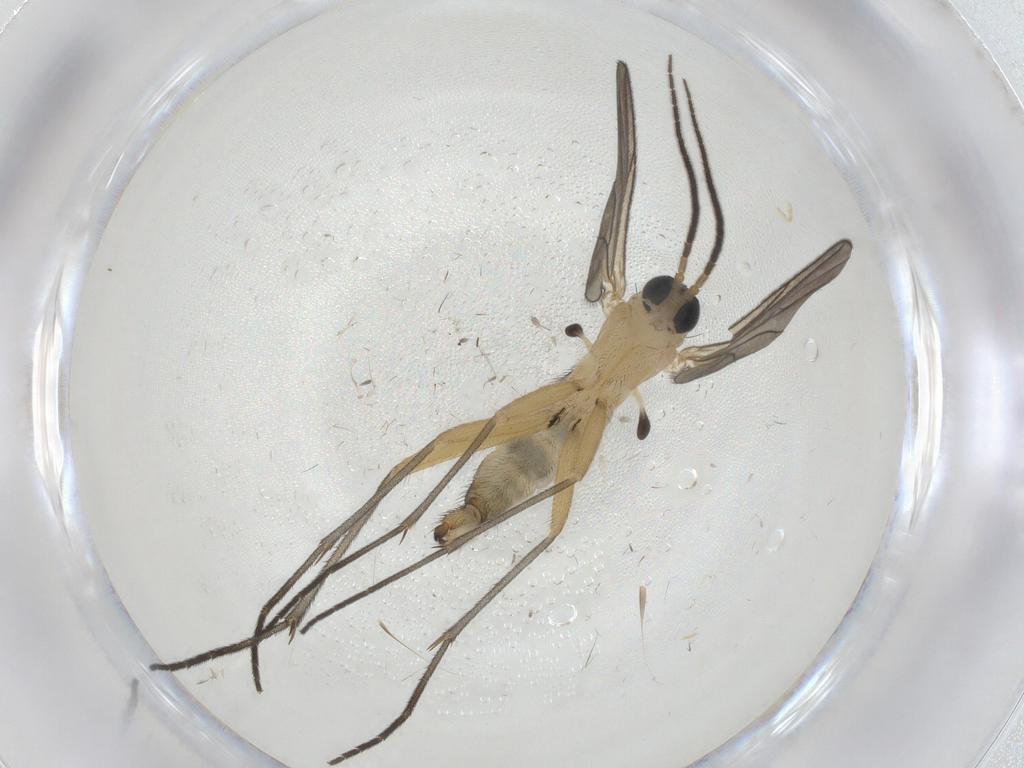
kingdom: Animalia
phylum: Arthropoda
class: Insecta
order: Diptera
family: Sciaridae
